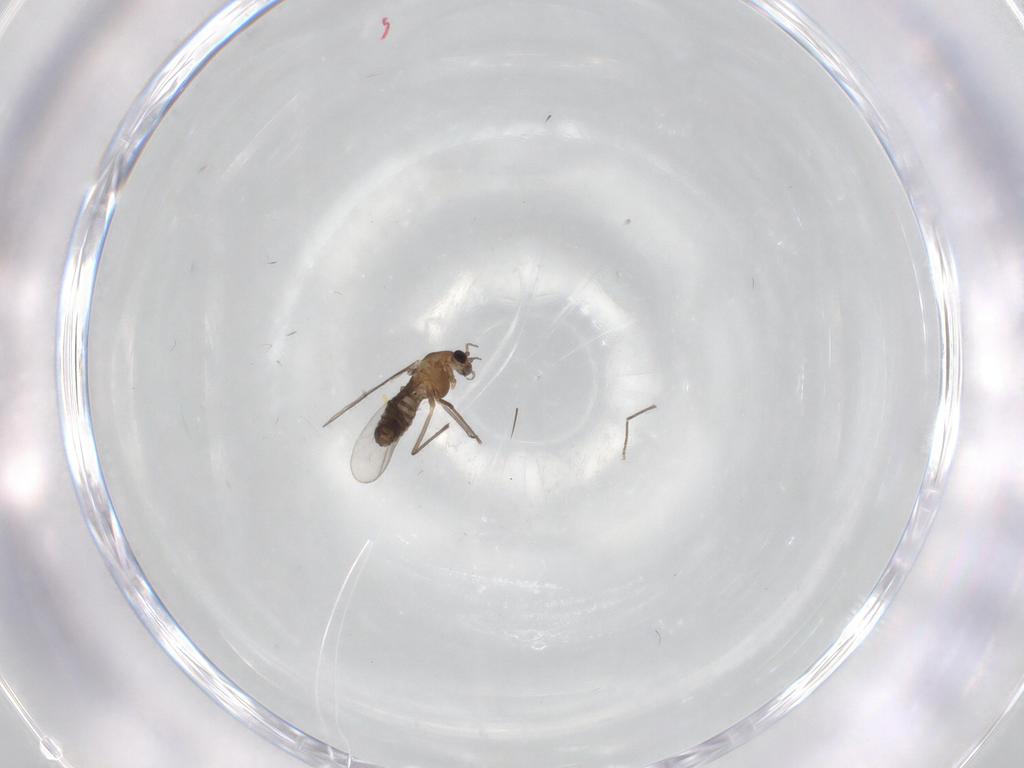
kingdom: Animalia
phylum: Arthropoda
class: Insecta
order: Diptera
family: Chironomidae
